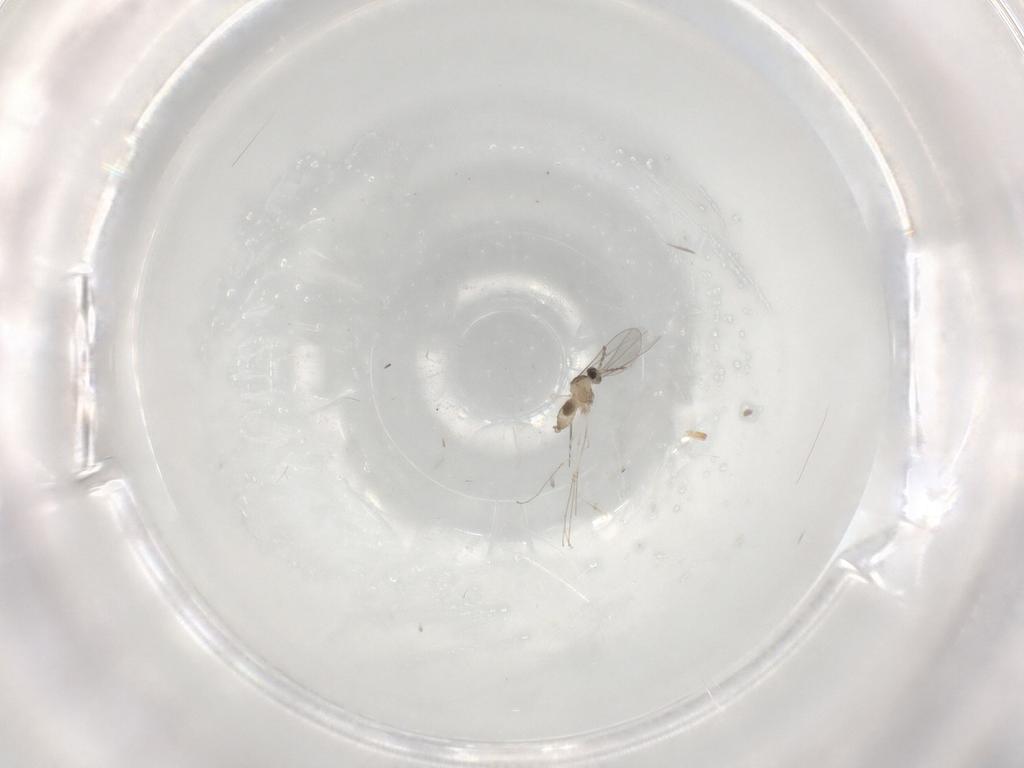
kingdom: Animalia
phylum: Arthropoda
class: Insecta
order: Diptera
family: Cecidomyiidae
